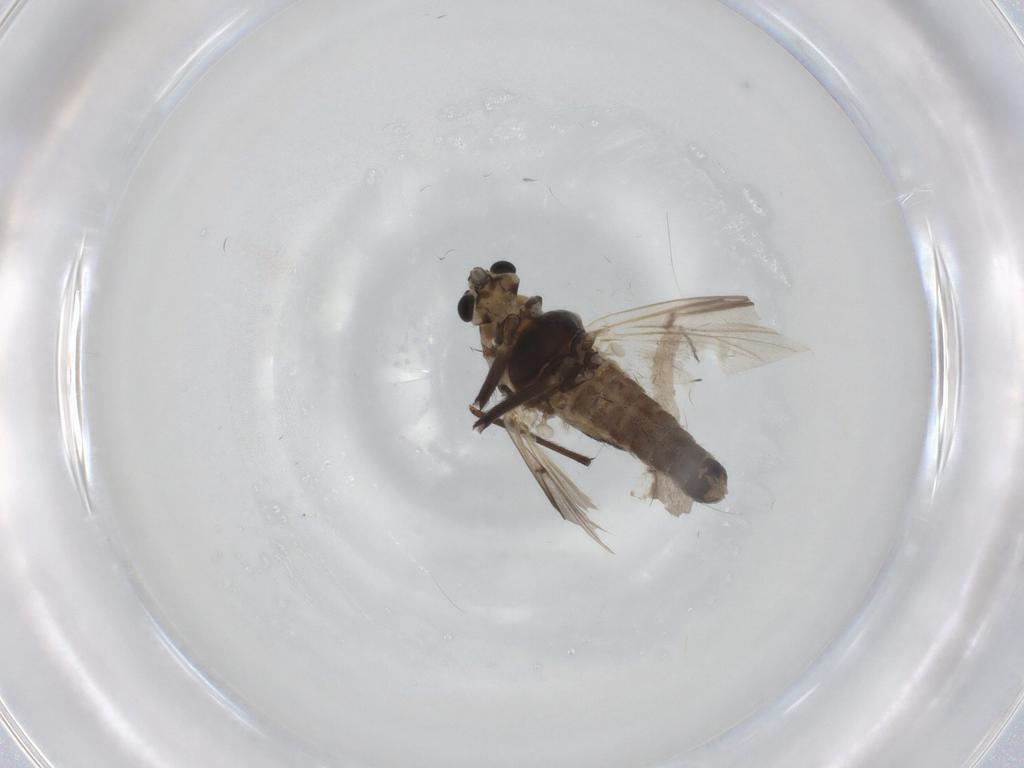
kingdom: Animalia
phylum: Arthropoda
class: Insecta
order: Diptera
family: Chironomidae
